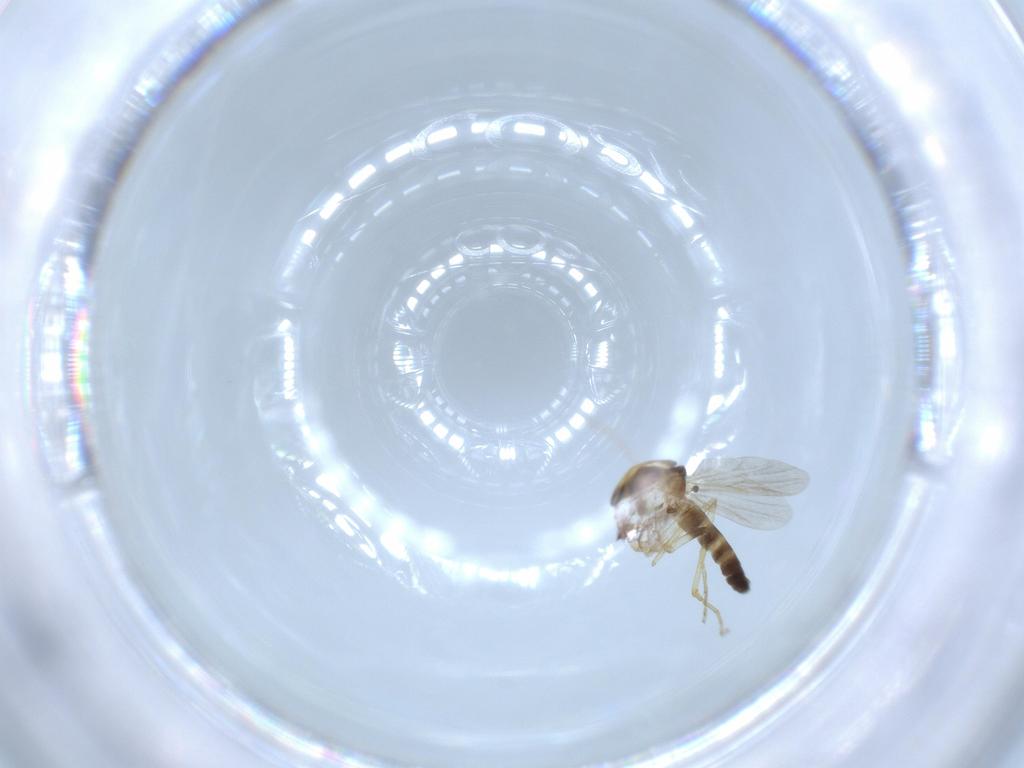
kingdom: Animalia
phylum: Arthropoda
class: Insecta
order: Diptera
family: Ceratopogonidae
